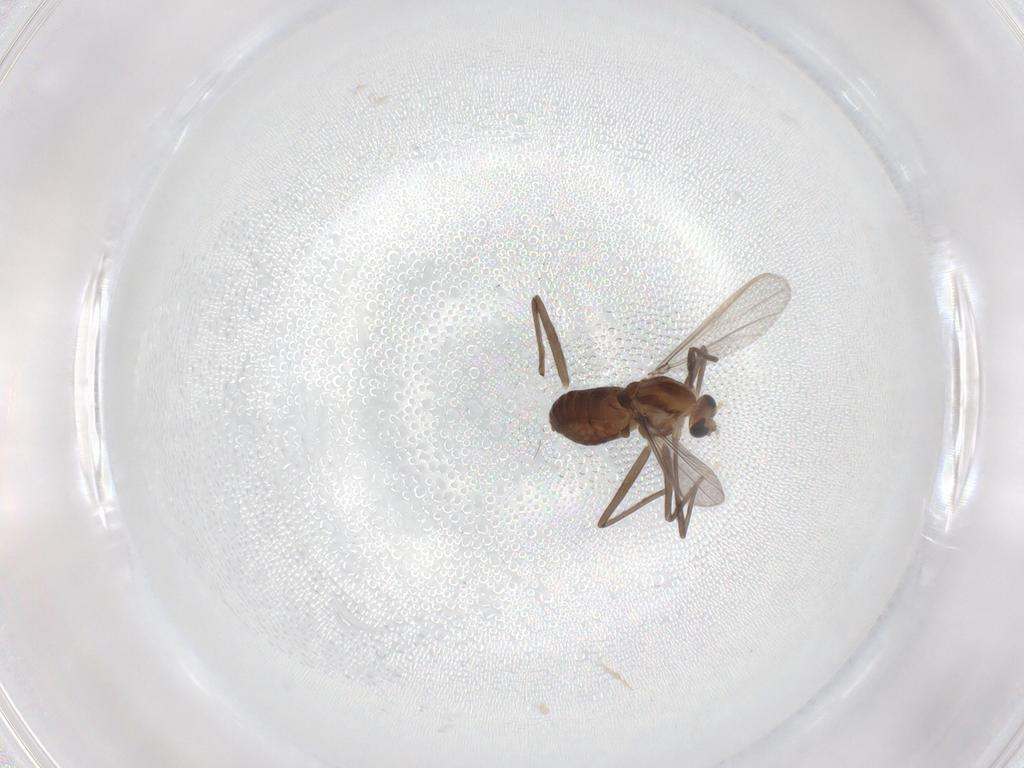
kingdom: Animalia
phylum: Arthropoda
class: Insecta
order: Diptera
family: Chironomidae
